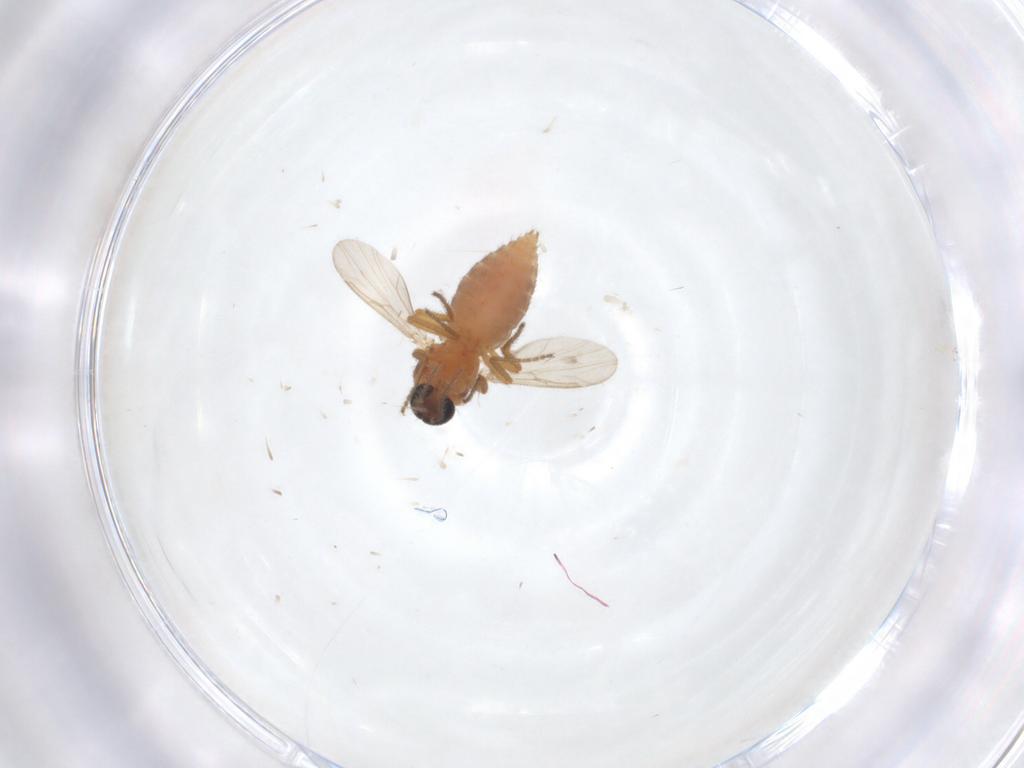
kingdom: Animalia
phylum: Arthropoda
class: Insecta
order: Diptera
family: Ceratopogonidae
